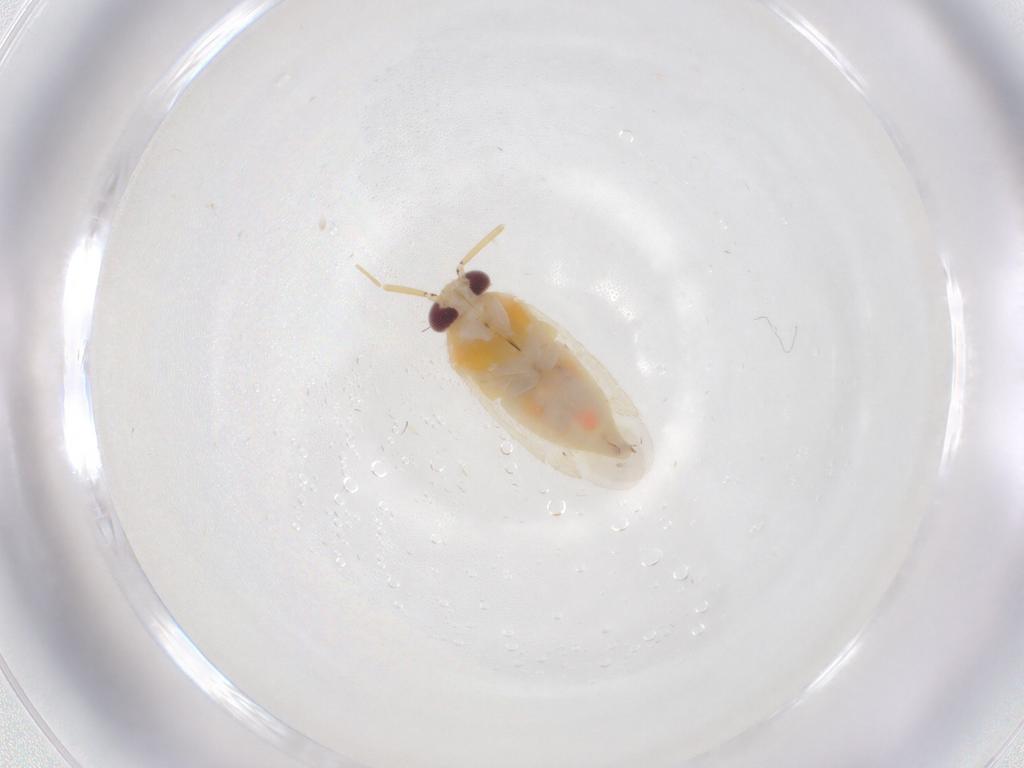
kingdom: Animalia
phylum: Arthropoda
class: Insecta
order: Hemiptera
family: Miridae
